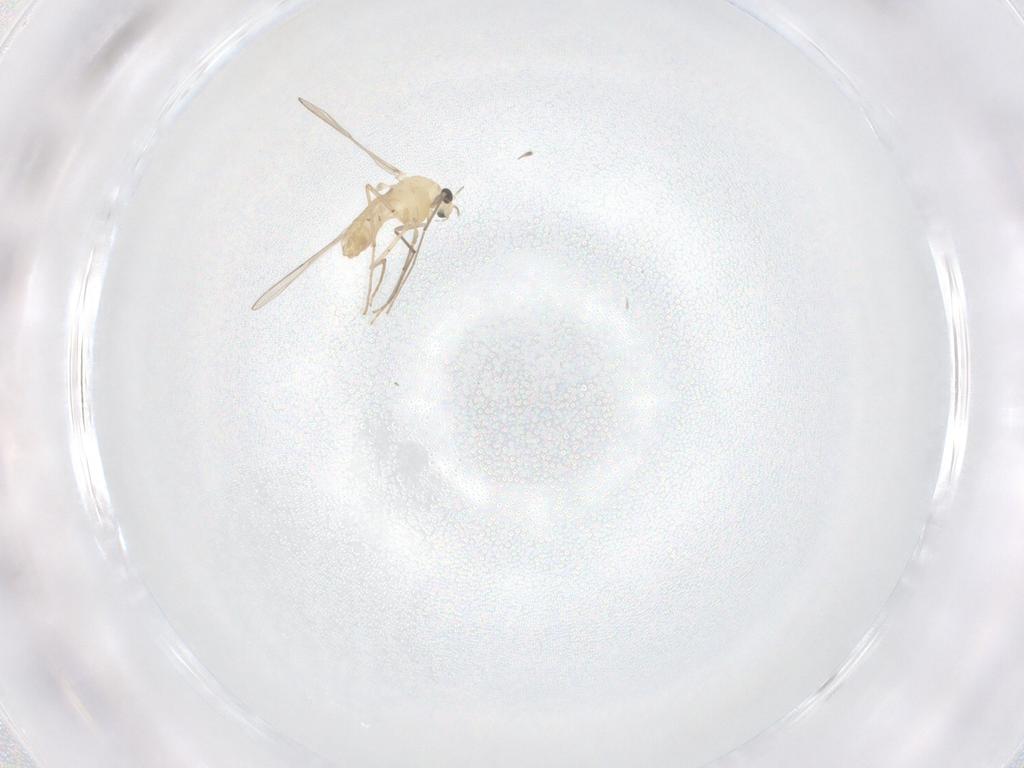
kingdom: Animalia
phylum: Arthropoda
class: Insecta
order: Diptera
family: Chironomidae
